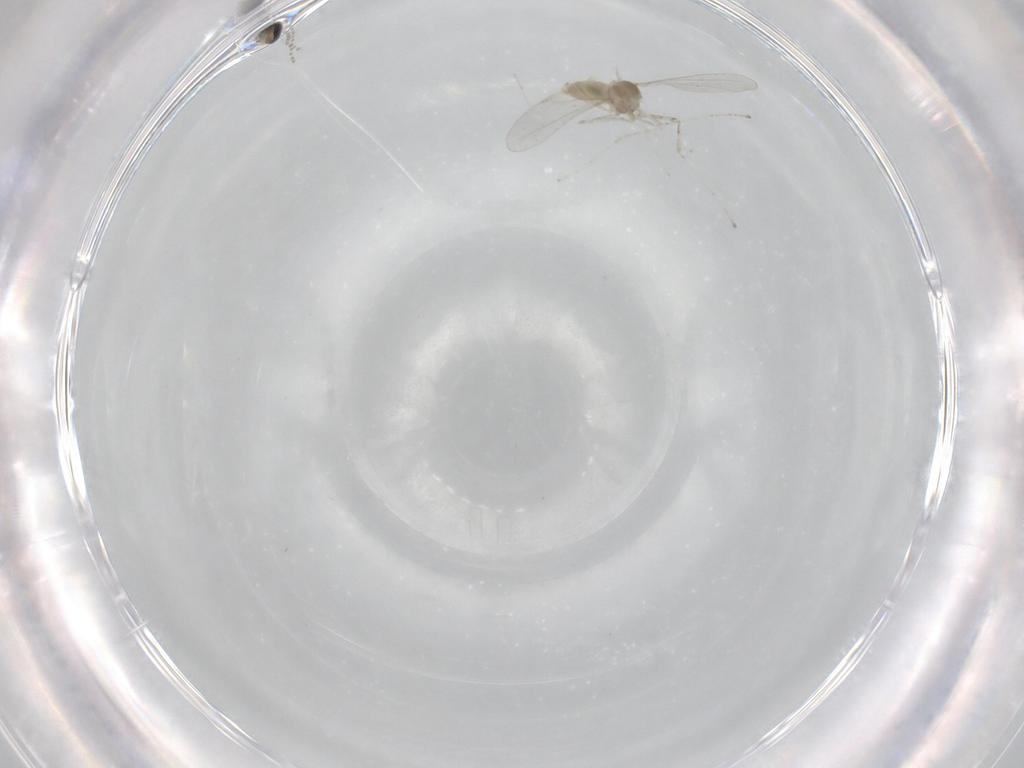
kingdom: Animalia
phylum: Arthropoda
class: Insecta
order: Diptera
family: Cecidomyiidae
